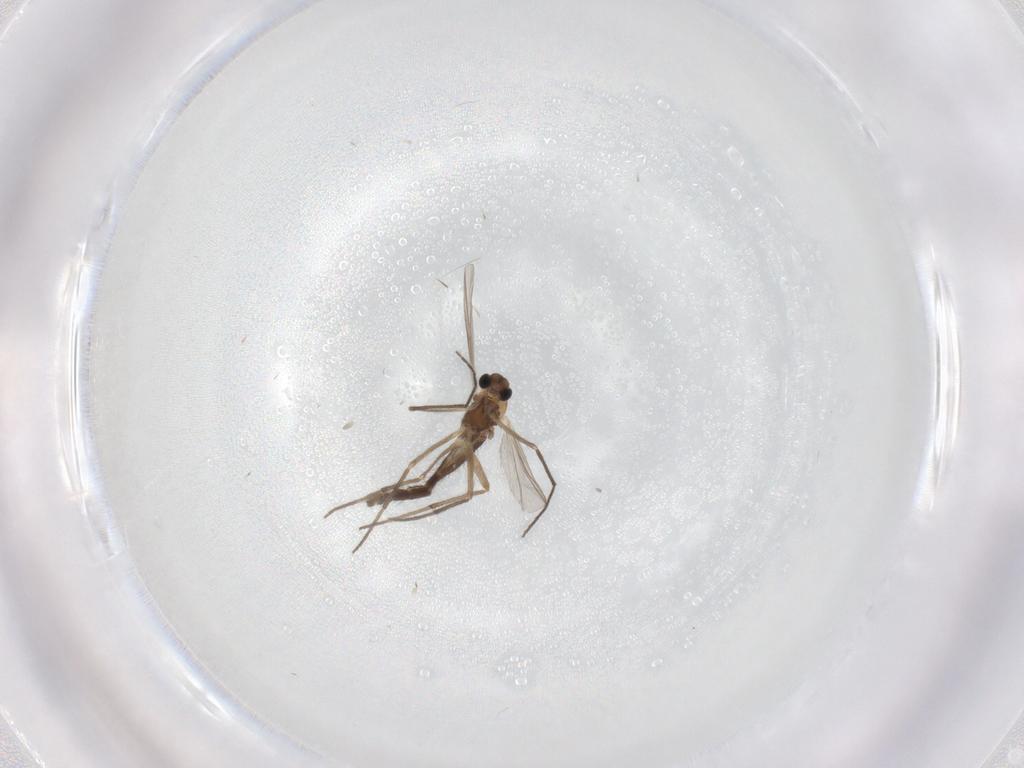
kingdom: Animalia
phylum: Arthropoda
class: Insecta
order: Diptera
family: Chironomidae
